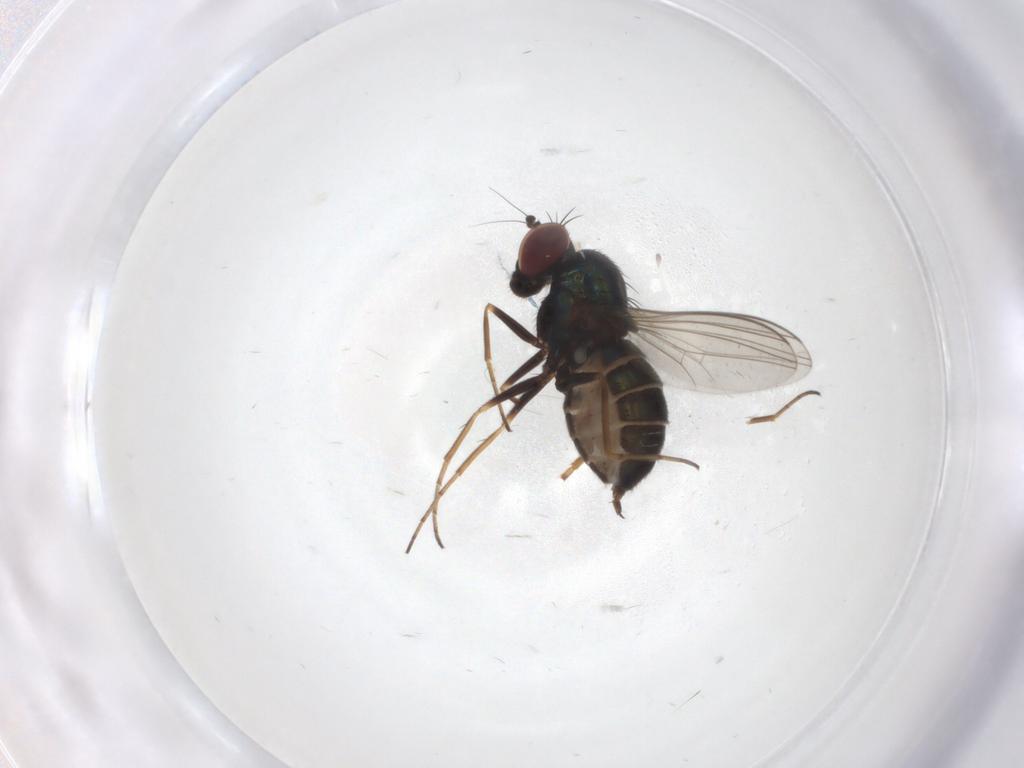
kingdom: Animalia
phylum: Arthropoda
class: Insecta
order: Diptera
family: Dolichopodidae
